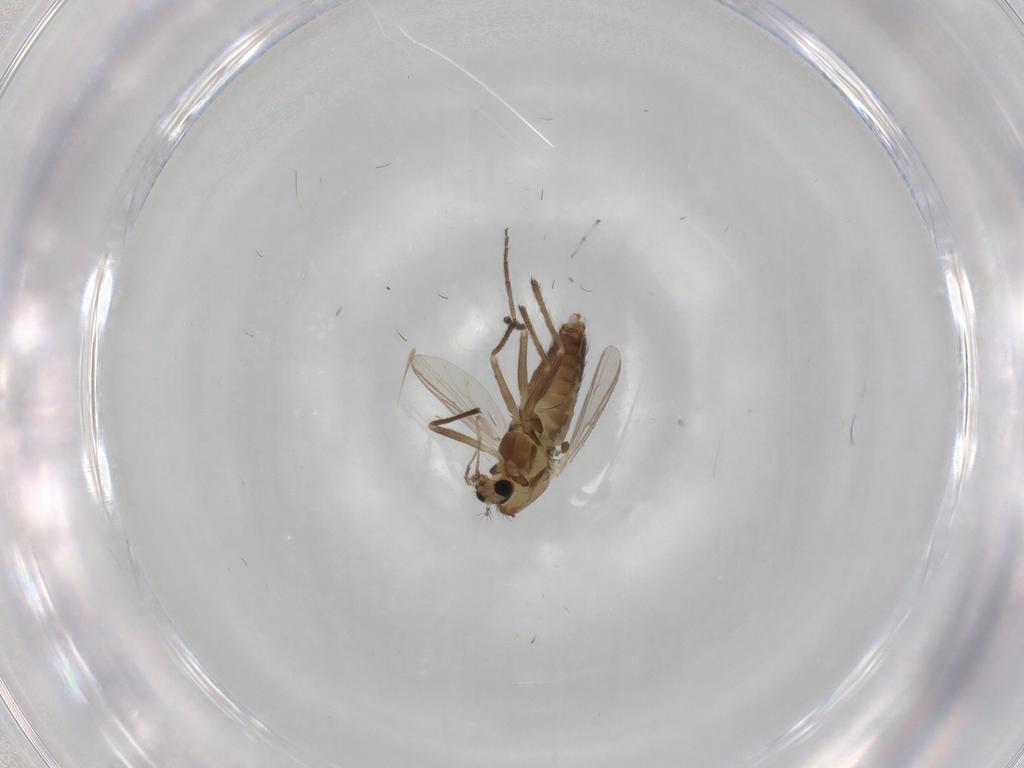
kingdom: Animalia
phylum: Arthropoda
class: Insecta
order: Diptera
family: Chironomidae
